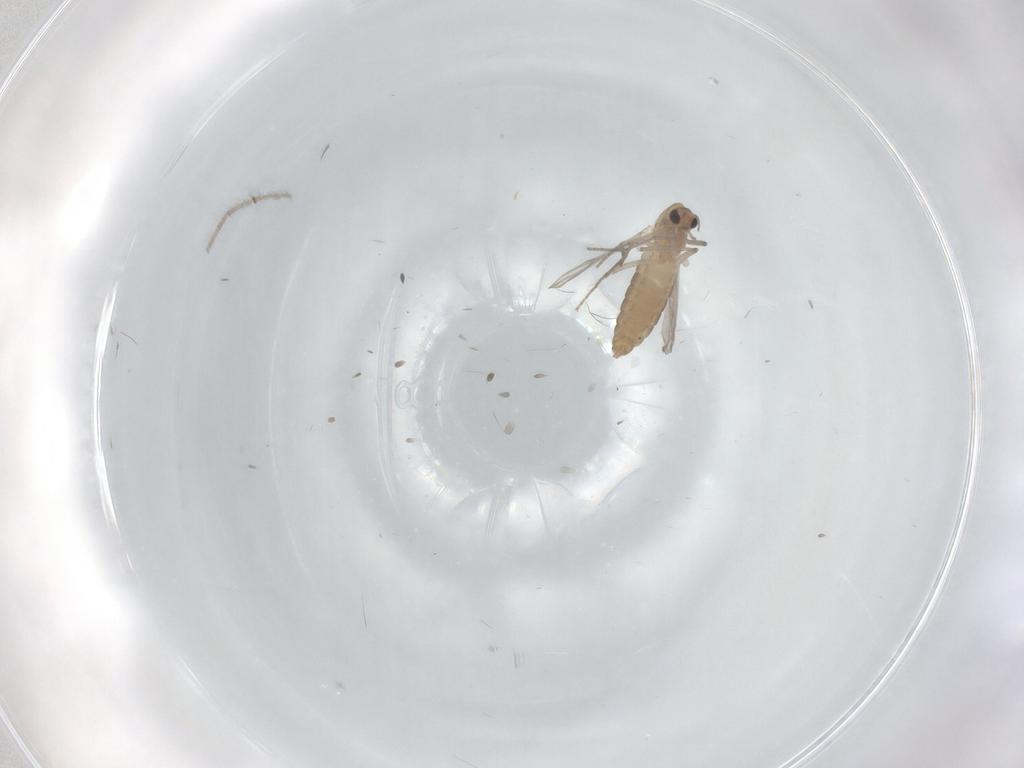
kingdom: Animalia
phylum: Arthropoda
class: Insecta
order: Diptera
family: Chironomidae
